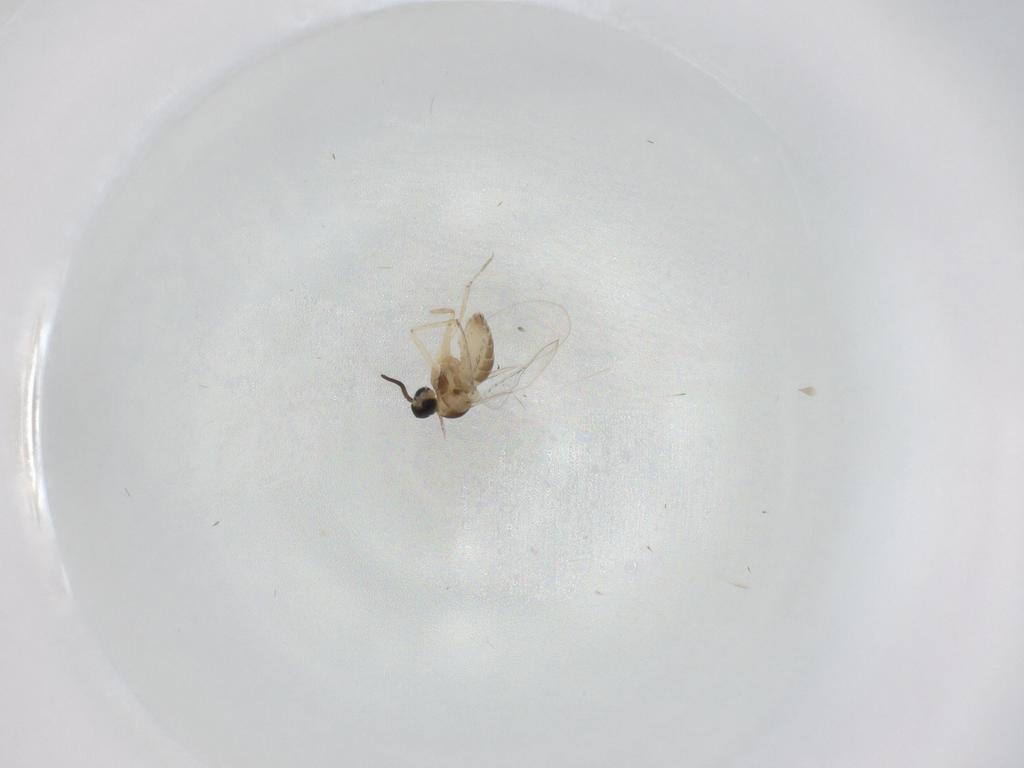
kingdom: Animalia
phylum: Arthropoda
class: Insecta
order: Diptera
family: Cecidomyiidae
